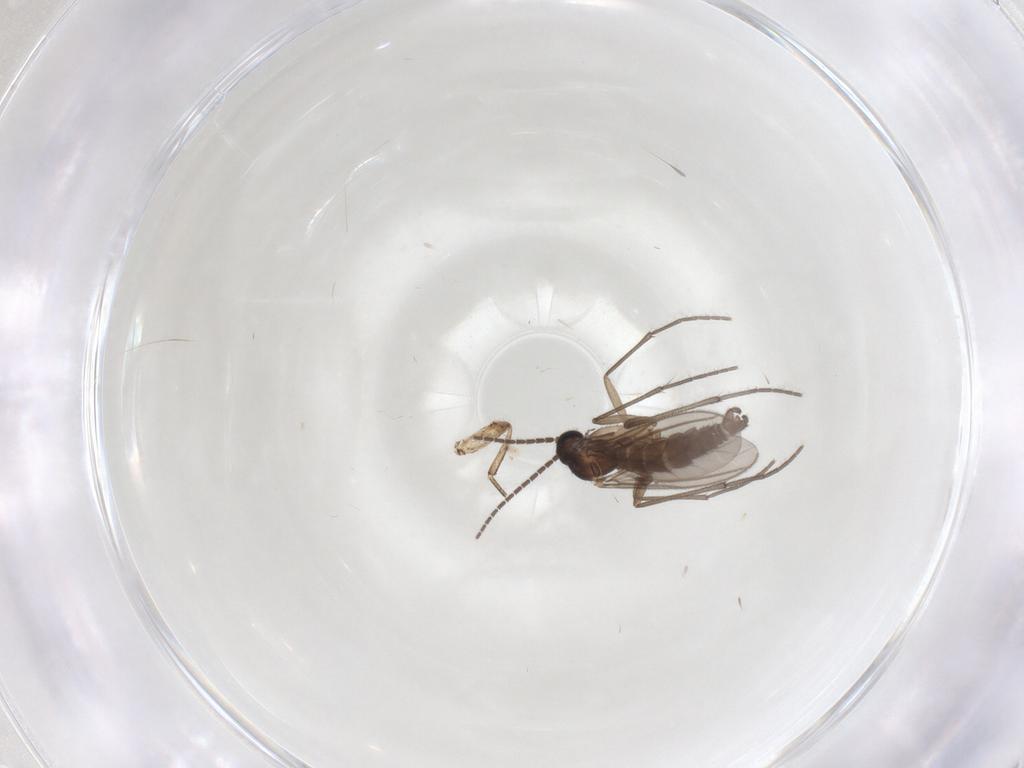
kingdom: Animalia
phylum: Arthropoda
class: Insecta
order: Diptera
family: Sciaridae
